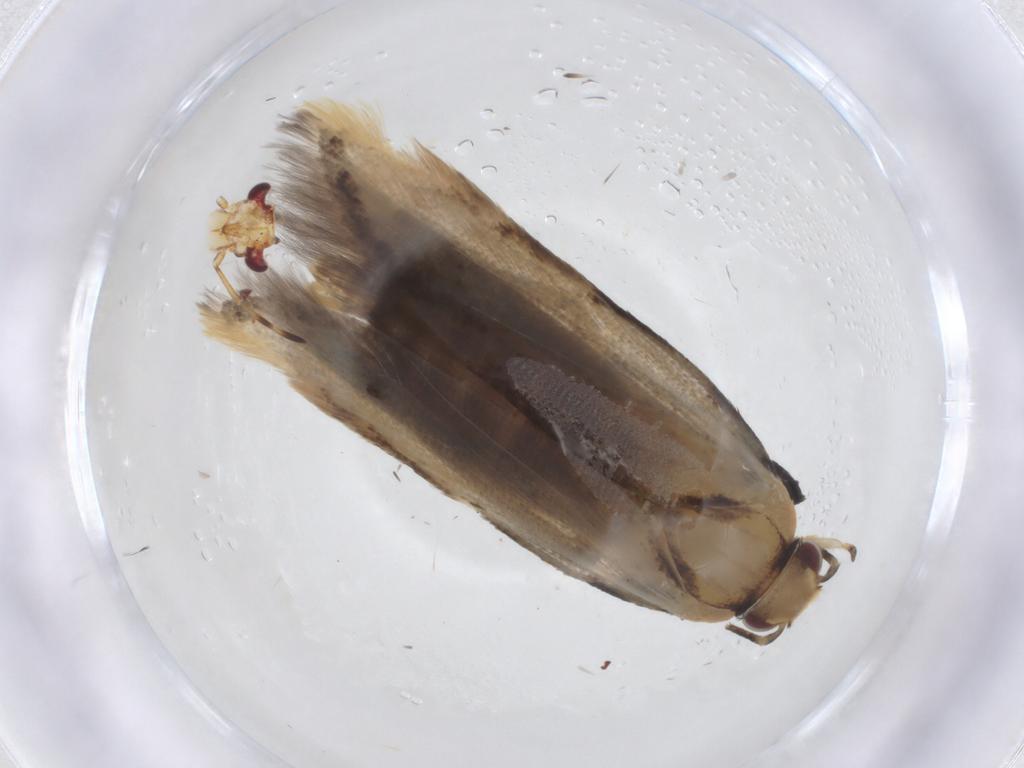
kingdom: Animalia
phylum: Arthropoda
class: Insecta
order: Lepidoptera
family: Gelechiidae
